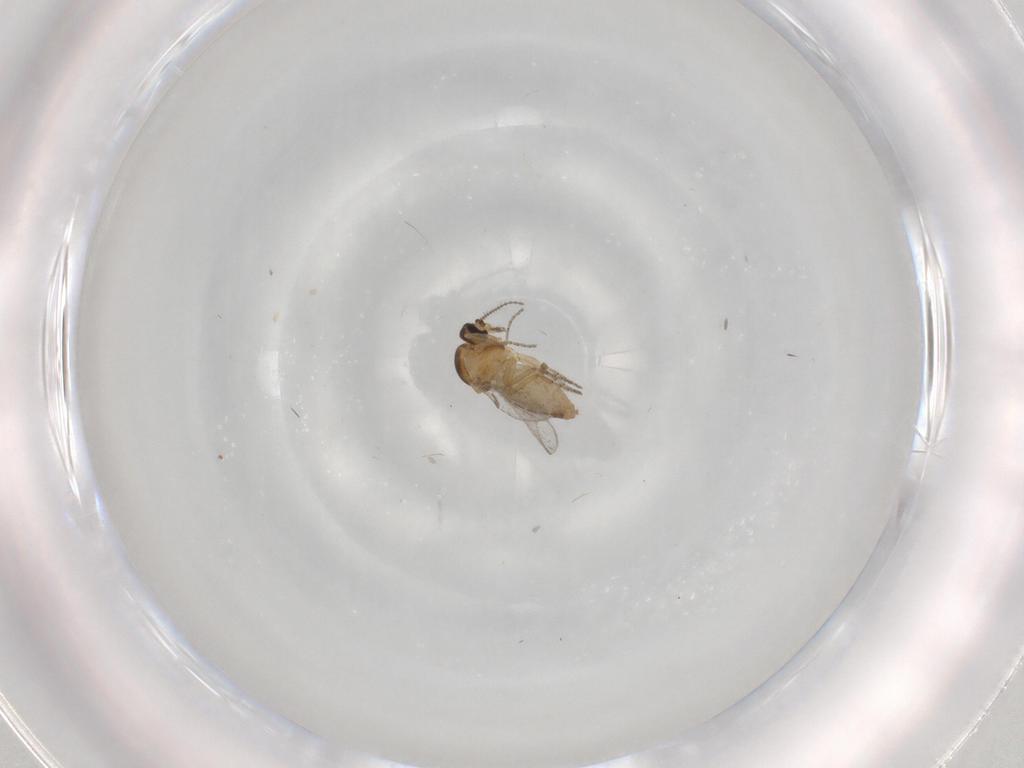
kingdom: Animalia
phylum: Arthropoda
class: Insecta
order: Diptera
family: Ceratopogonidae
